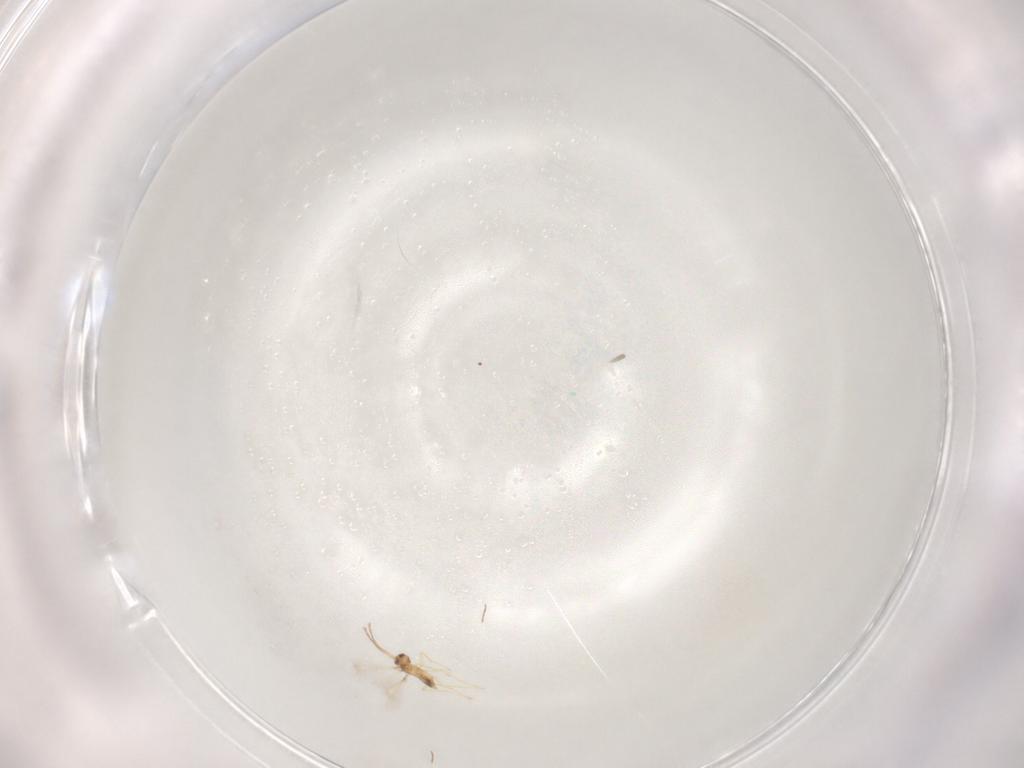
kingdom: Animalia
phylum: Arthropoda
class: Insecta
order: Hymenoptera
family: Mymaridae
